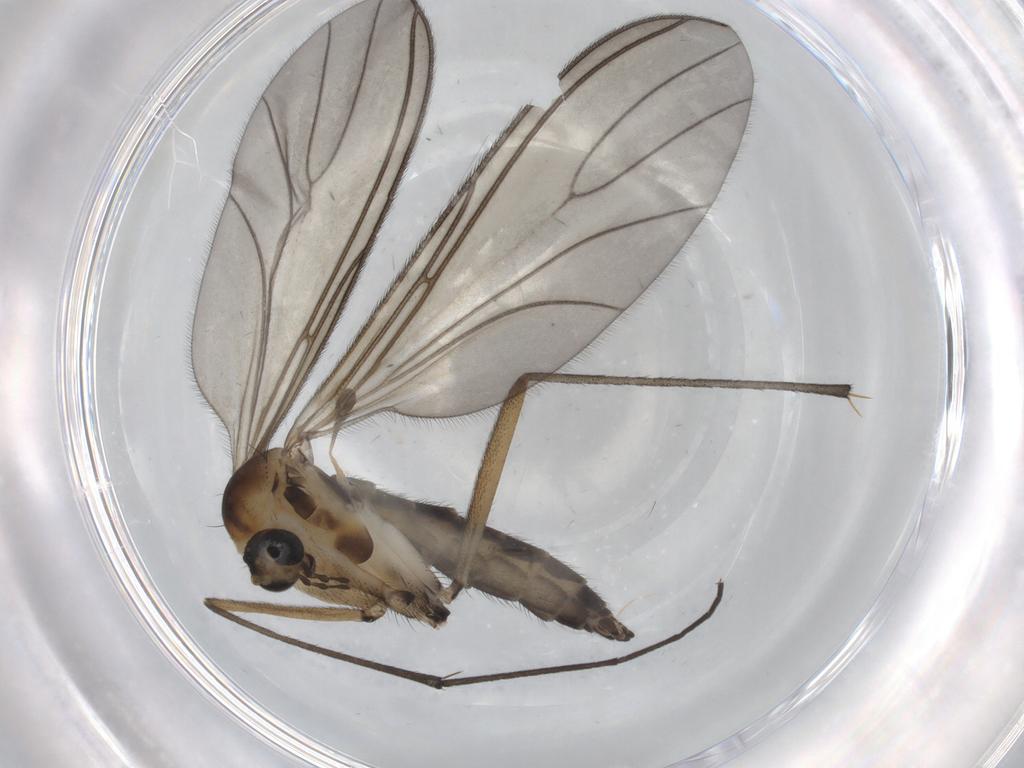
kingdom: Animalia
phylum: Arthropoda
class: Insecta
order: Diptera
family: Sciaridae
